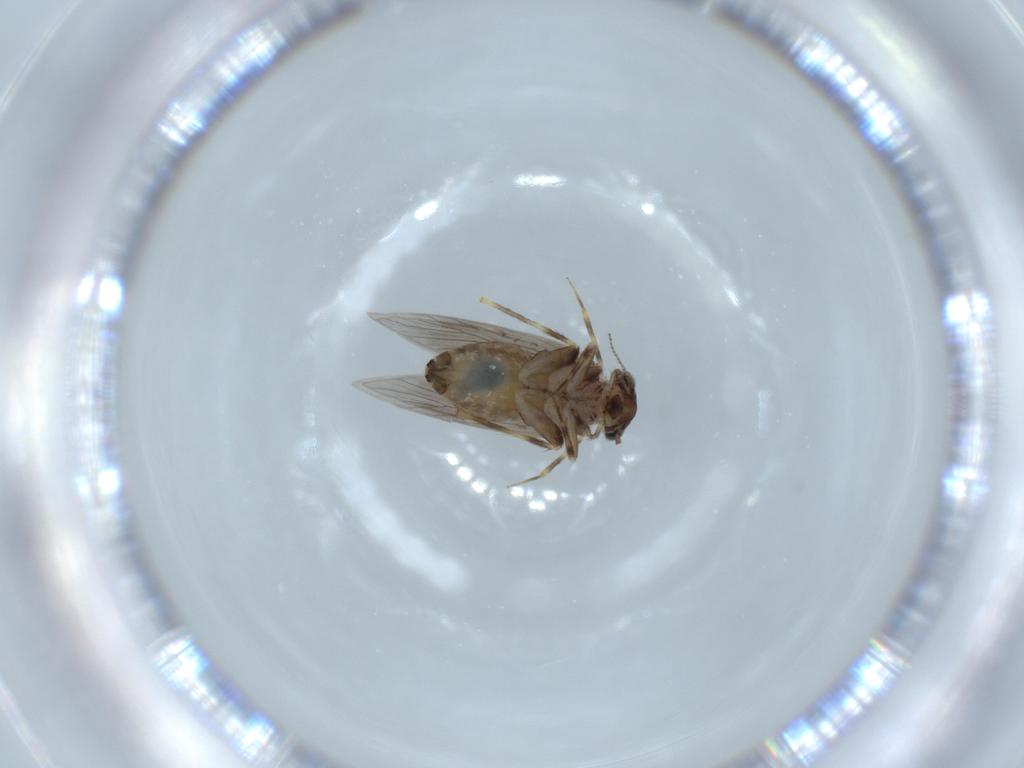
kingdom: Animalia
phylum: Arthropoda
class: Insecta
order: Psocodea
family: Lepidopsocidae
